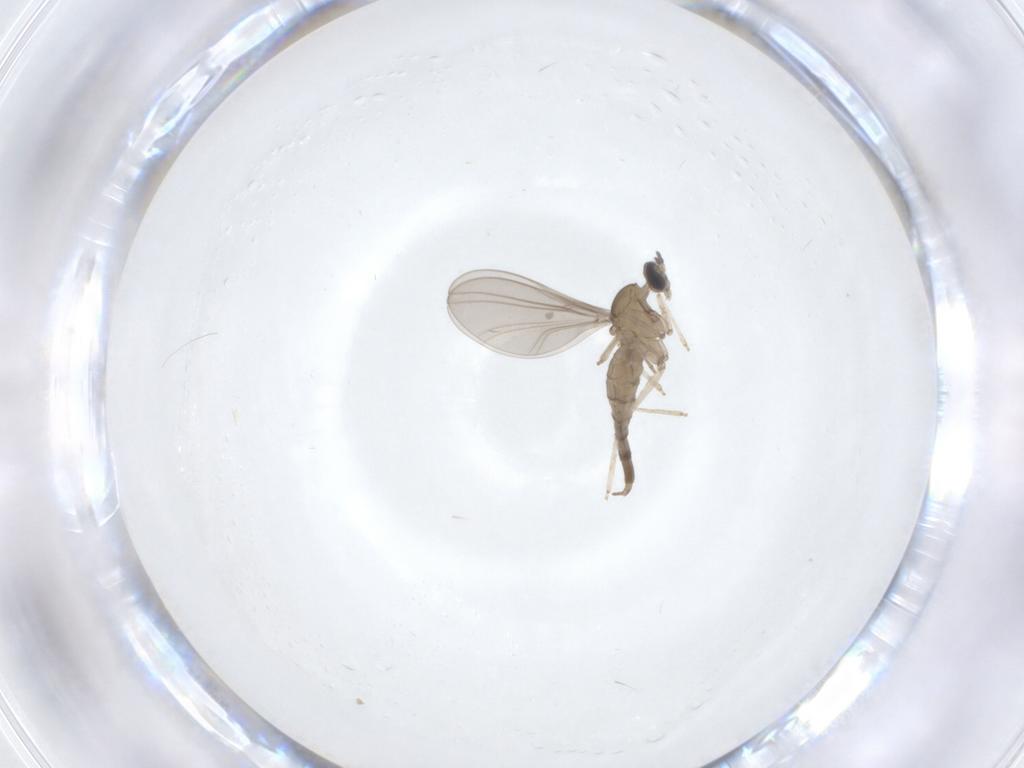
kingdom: Animalia
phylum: Arthropoda
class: Insecta
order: Diptera
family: Cecidomyiidae
